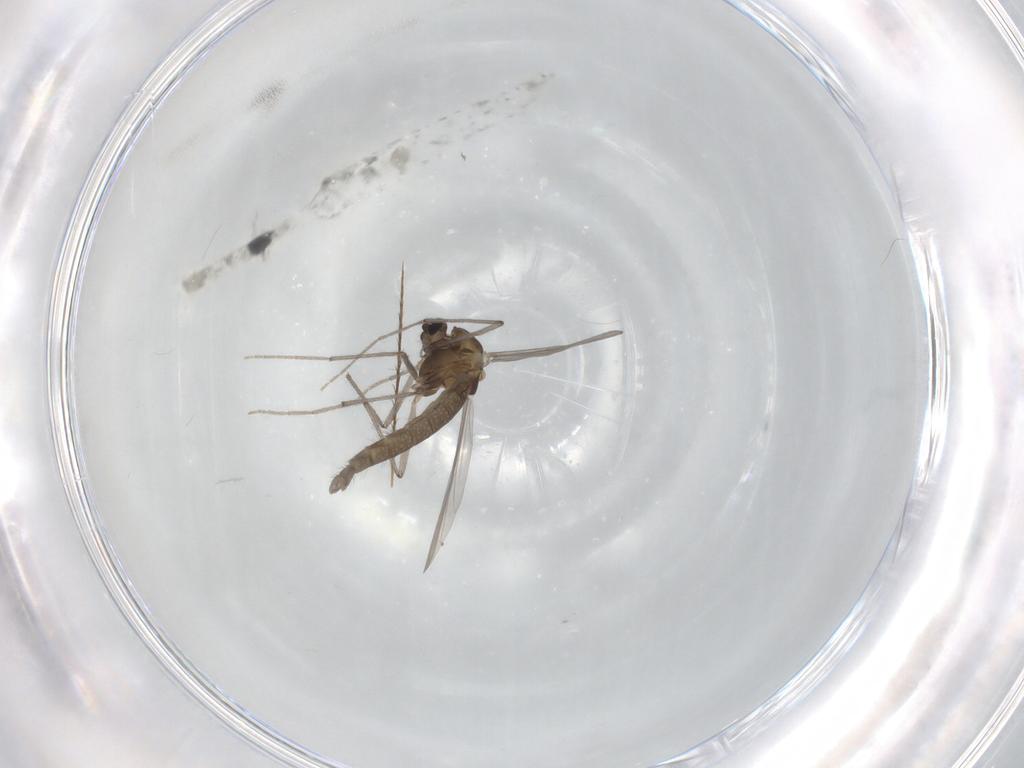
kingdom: Animalia
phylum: Arthropoda
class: Insecta
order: Diptera
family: Chironomidae
